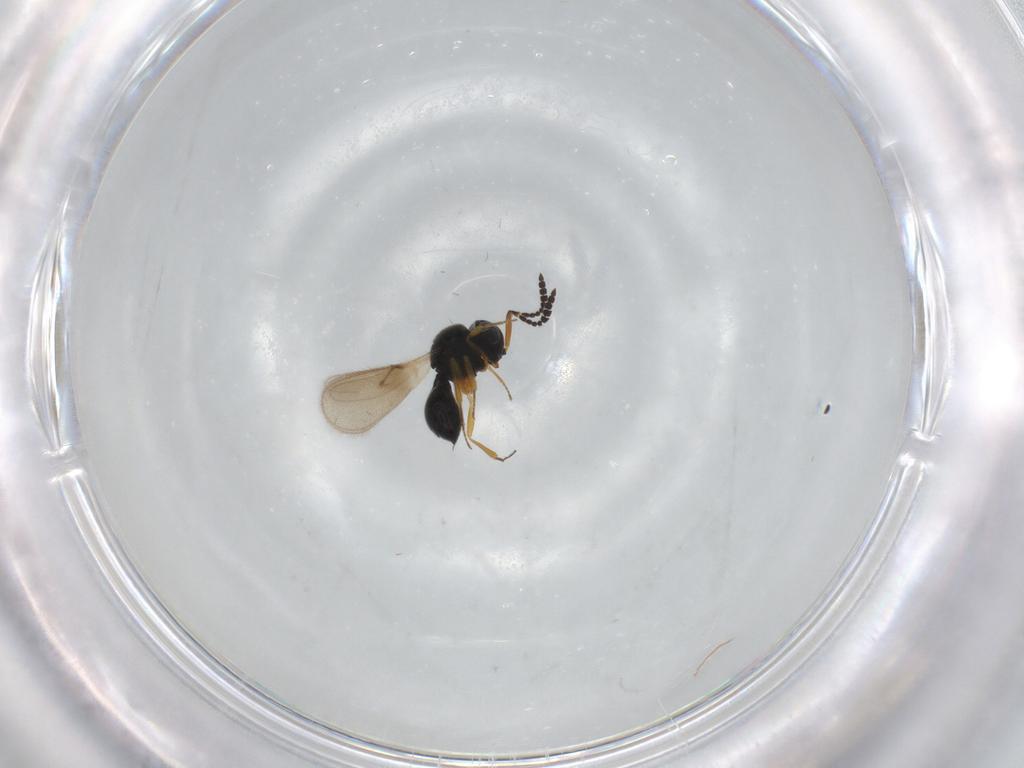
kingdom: Animalia
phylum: Arthropoda
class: Insecta
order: Hymenoptera
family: Scelionidae
